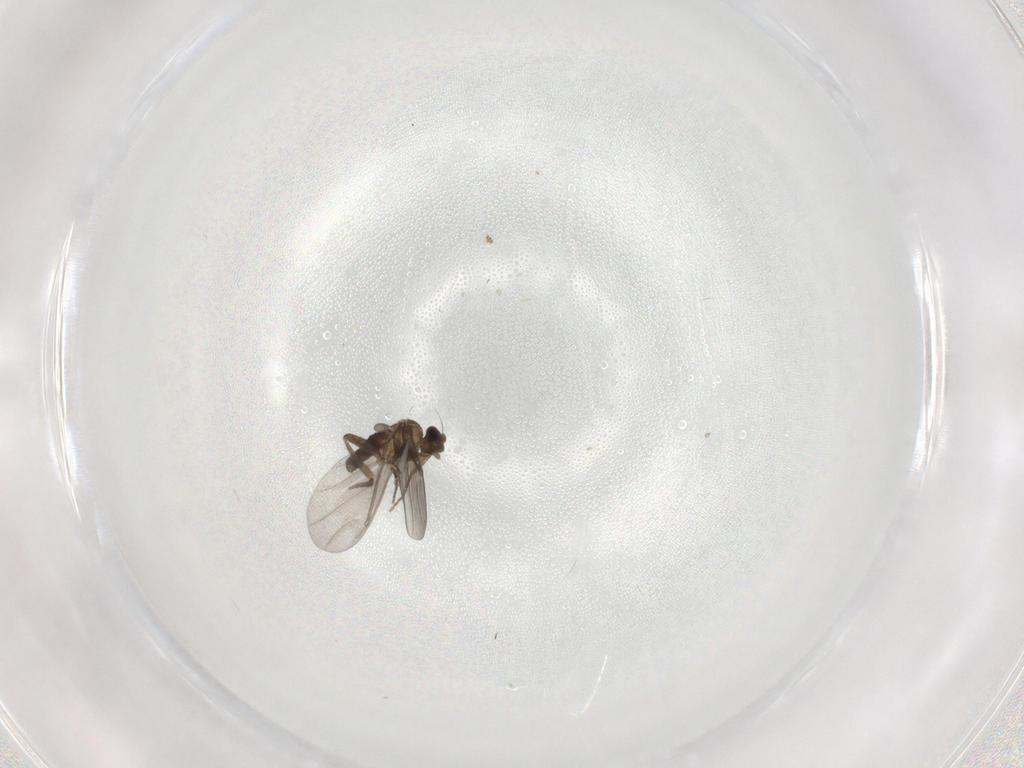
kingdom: Animalia
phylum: Arthropoda
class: Insecta
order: Diptera
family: Cecidomyiidae
